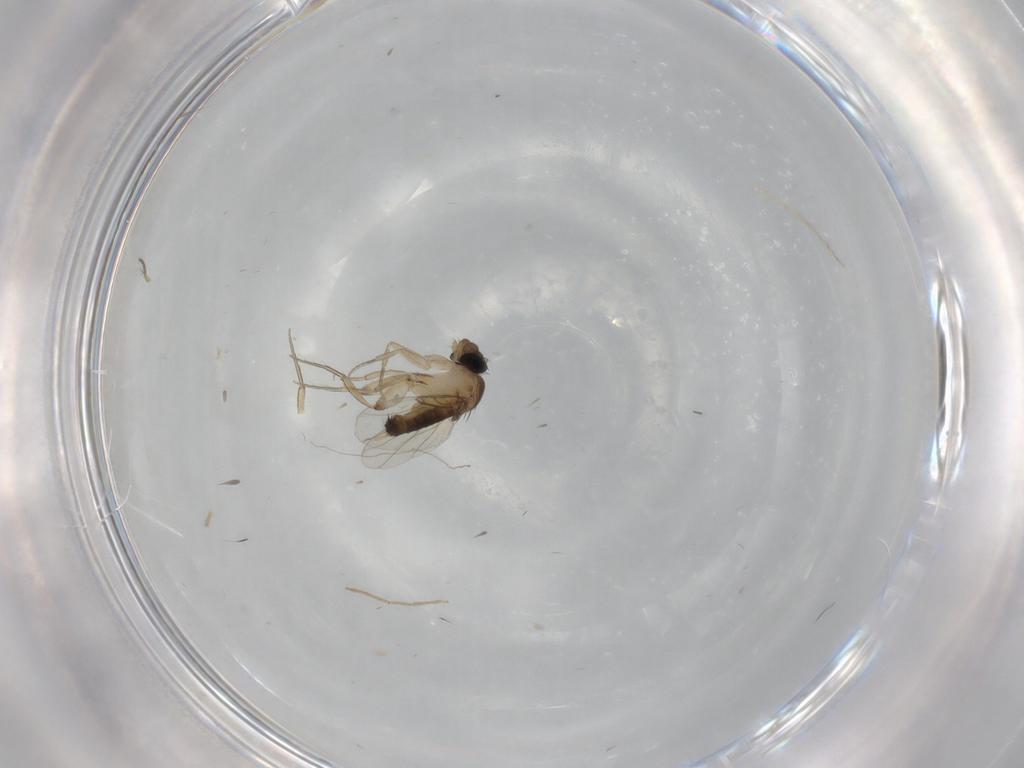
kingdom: Animalia
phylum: Arthropoda
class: Insecta
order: Diptera
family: Phoridae
